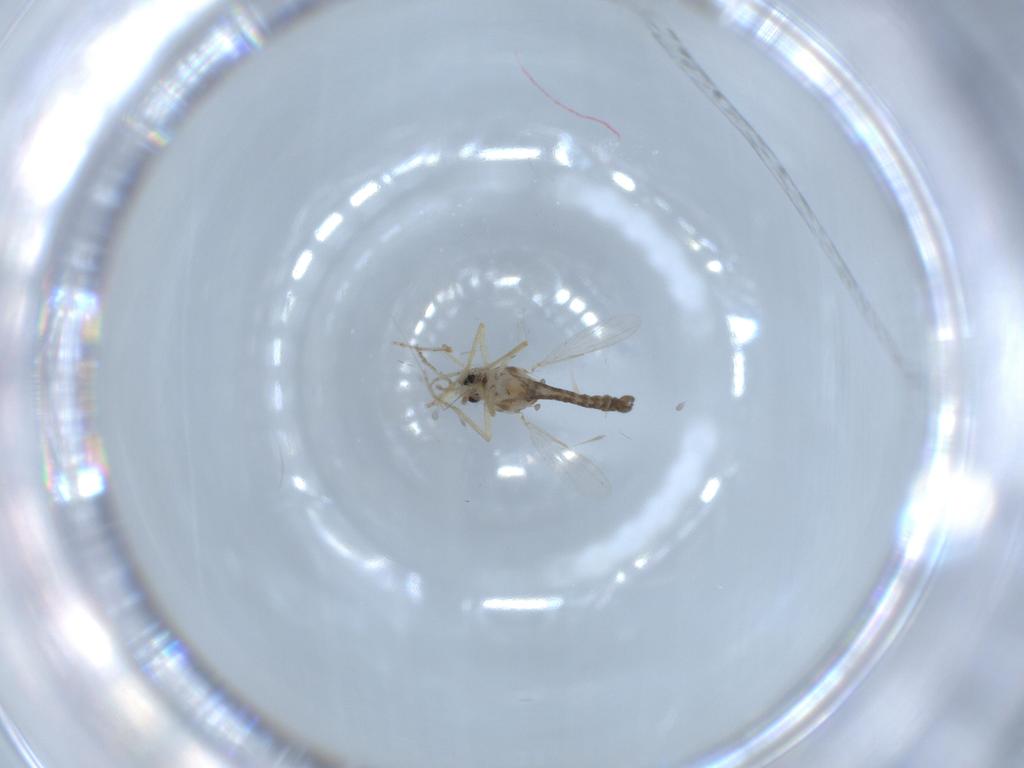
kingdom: Animalia
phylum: Arthropoda
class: Insecta
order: Diptera
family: Ceratopogonidae
